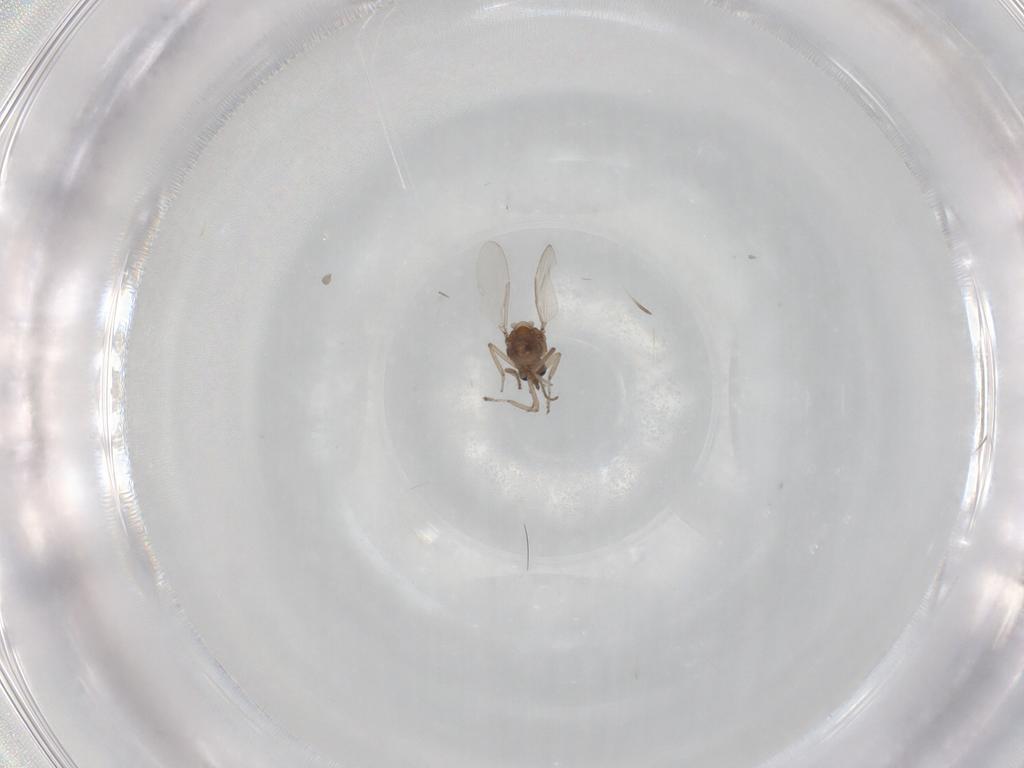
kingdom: Animalia
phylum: Arthropoda
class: Insecta
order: Diptera
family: Ceratopogonidae
